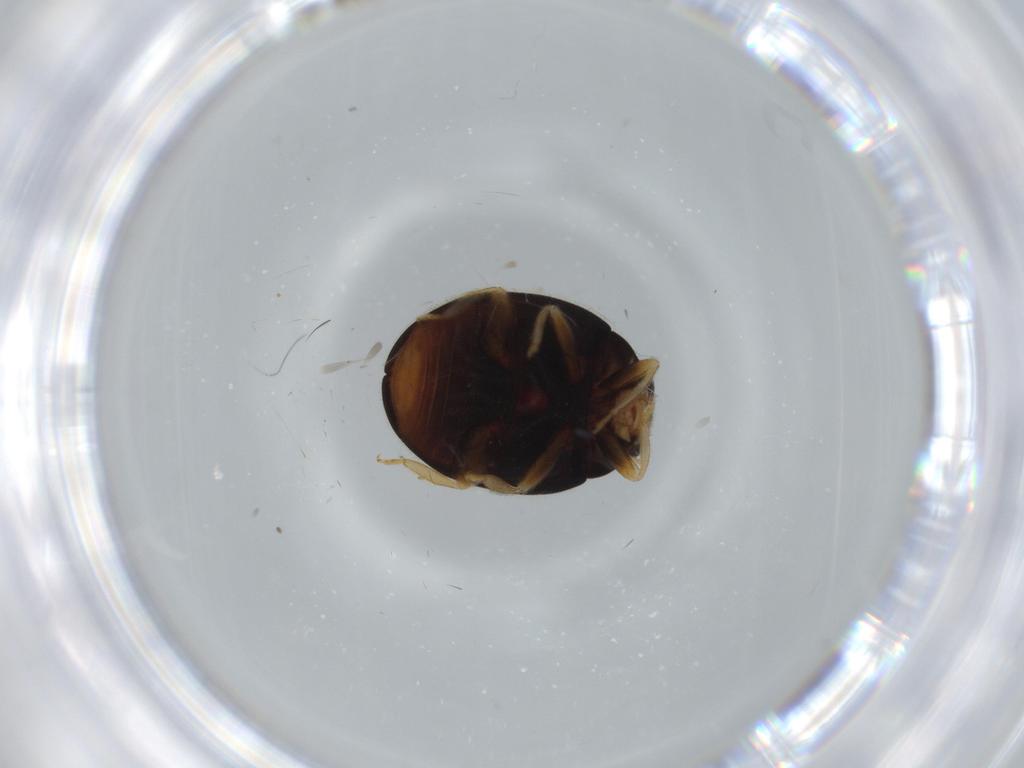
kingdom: Animalia
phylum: Arthropoda
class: Insecta
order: Coleoptera
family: Coccinellidae
